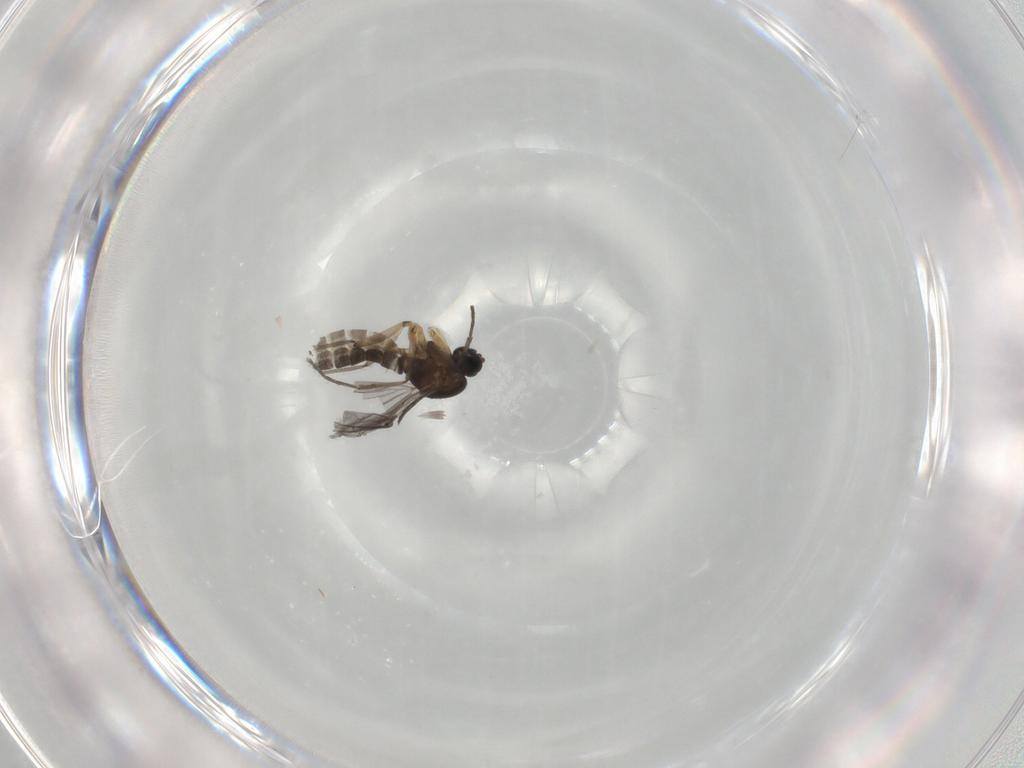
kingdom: Animalia
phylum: Arthropoda
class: Insecta
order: Diptera
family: Sciaridae
